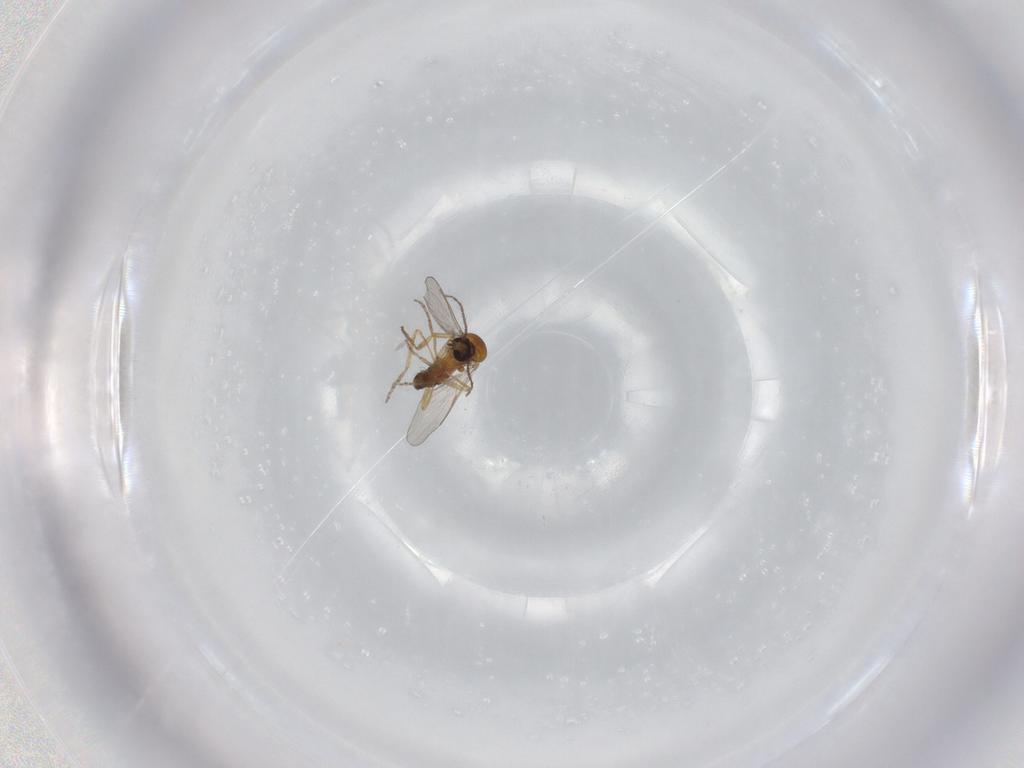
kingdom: Animalia
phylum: Arthropoda
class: Insecta
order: Diptera
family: Ceratopogonidae
